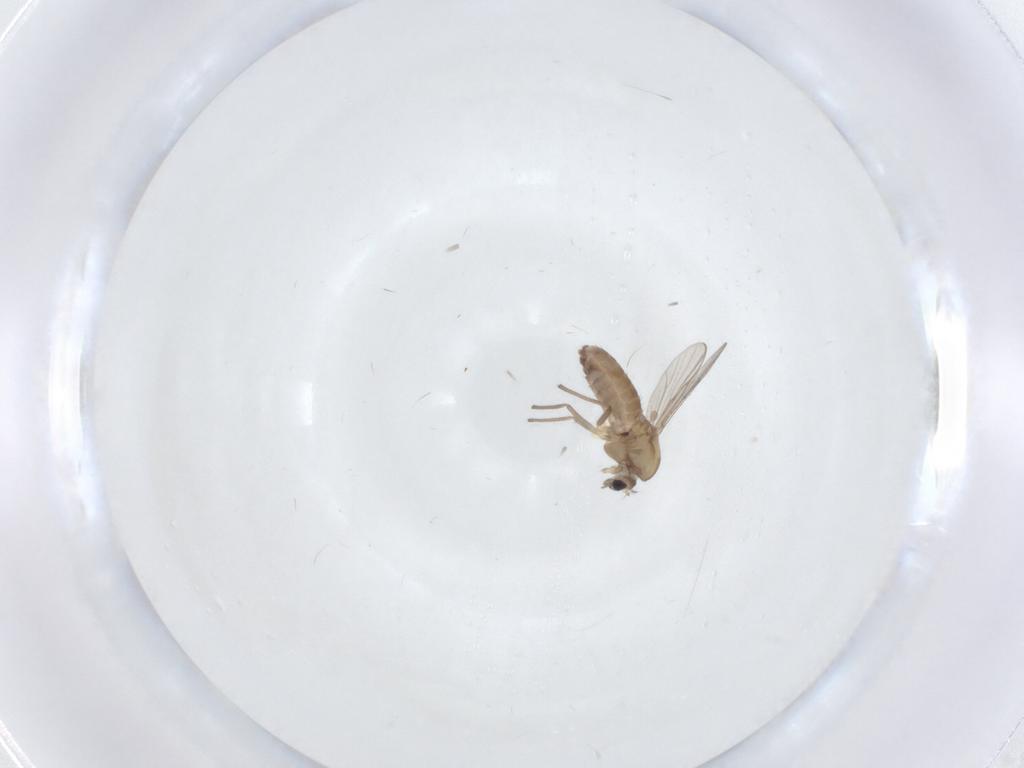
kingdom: Animalia
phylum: Arthropoda
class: Insecta
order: Diptera
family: Chironomidae
